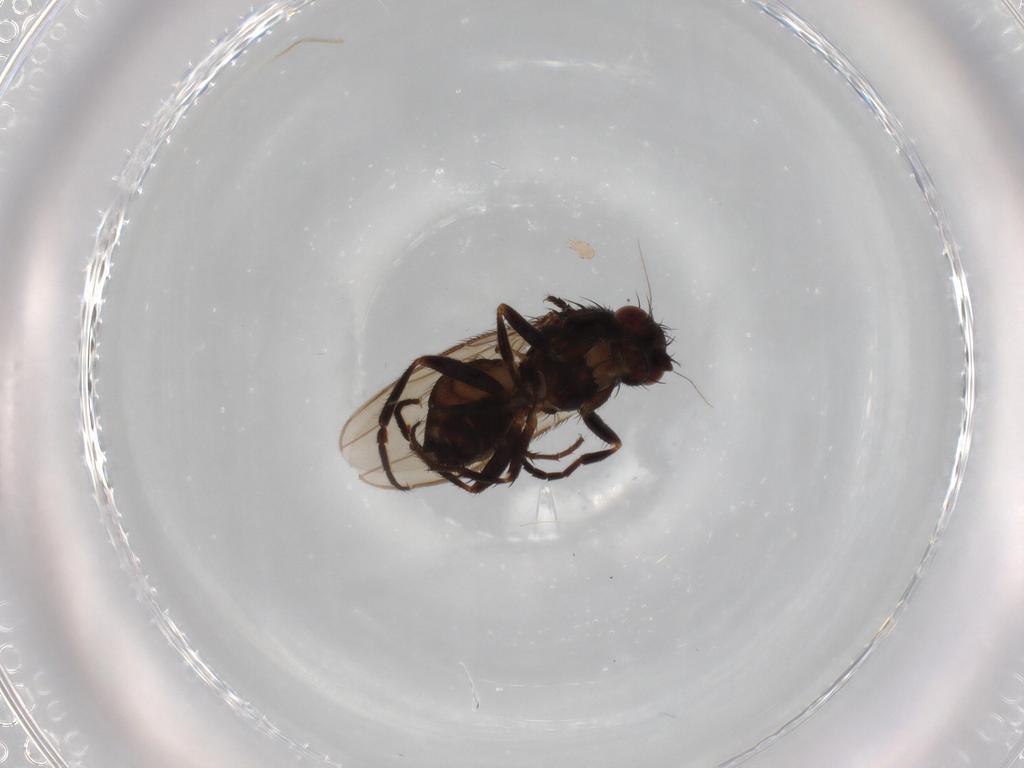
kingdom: Animalia
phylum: Arthropoda
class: Insecta
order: Diptera
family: Sphaeroceridae
